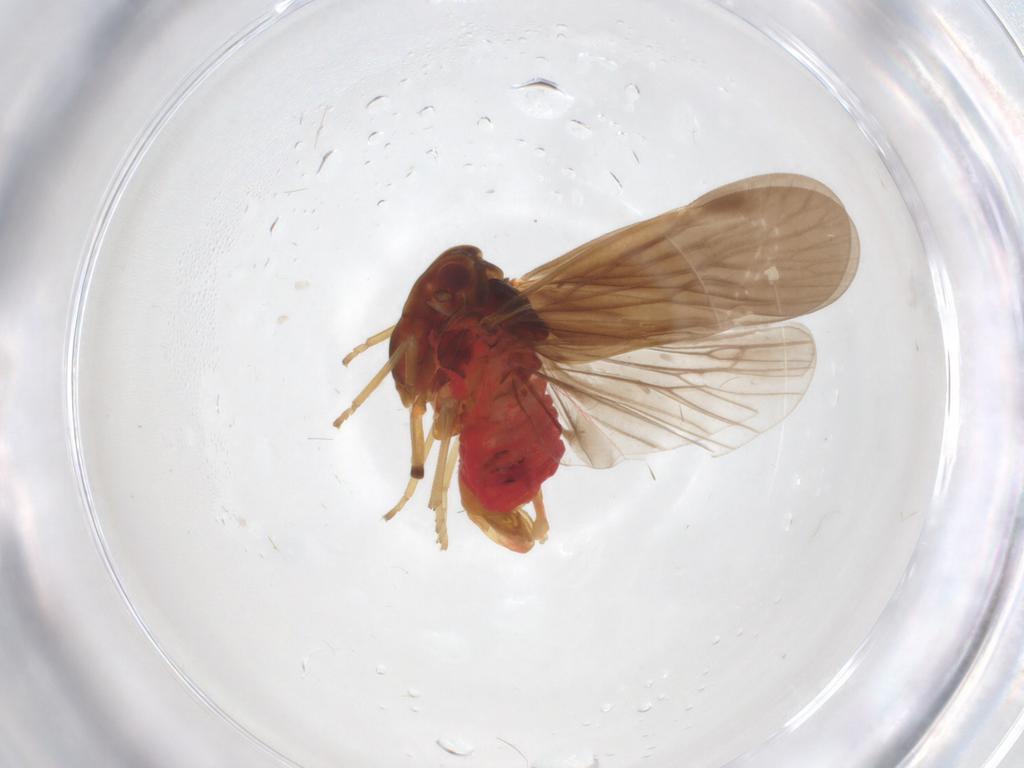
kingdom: Animalia
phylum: Arthropoda
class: Insecta
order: Hemiptera
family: Derbidae
